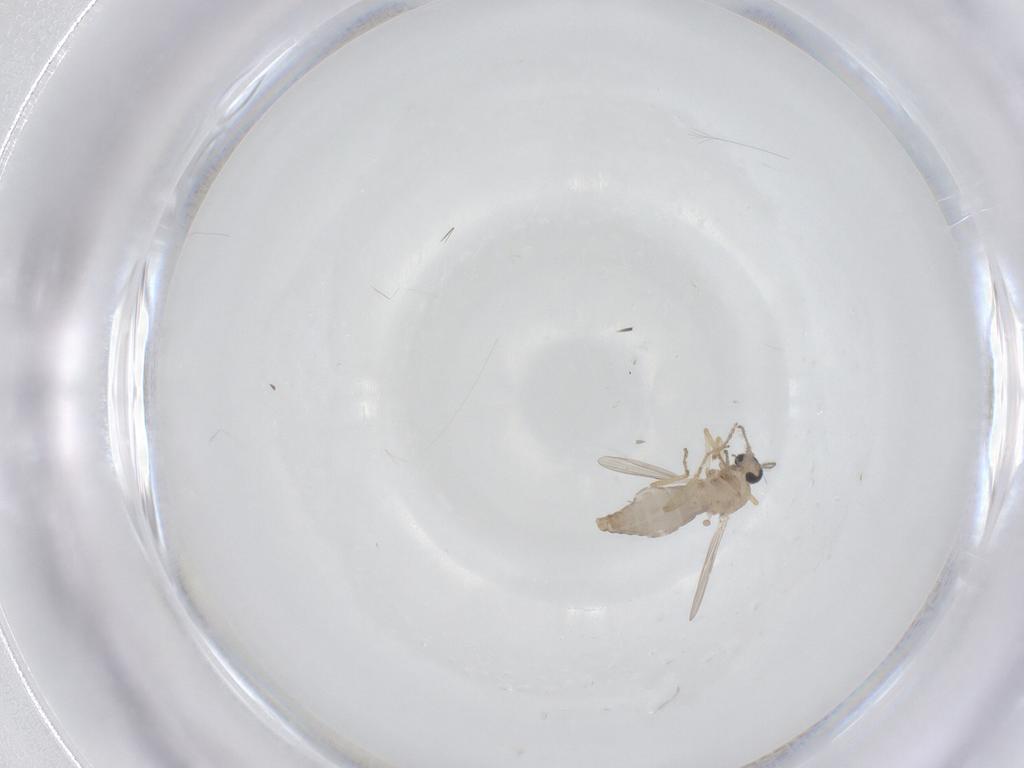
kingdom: Animalia
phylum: Arthropoda
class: Insecta
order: Diptera
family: Ceratopogonidae
